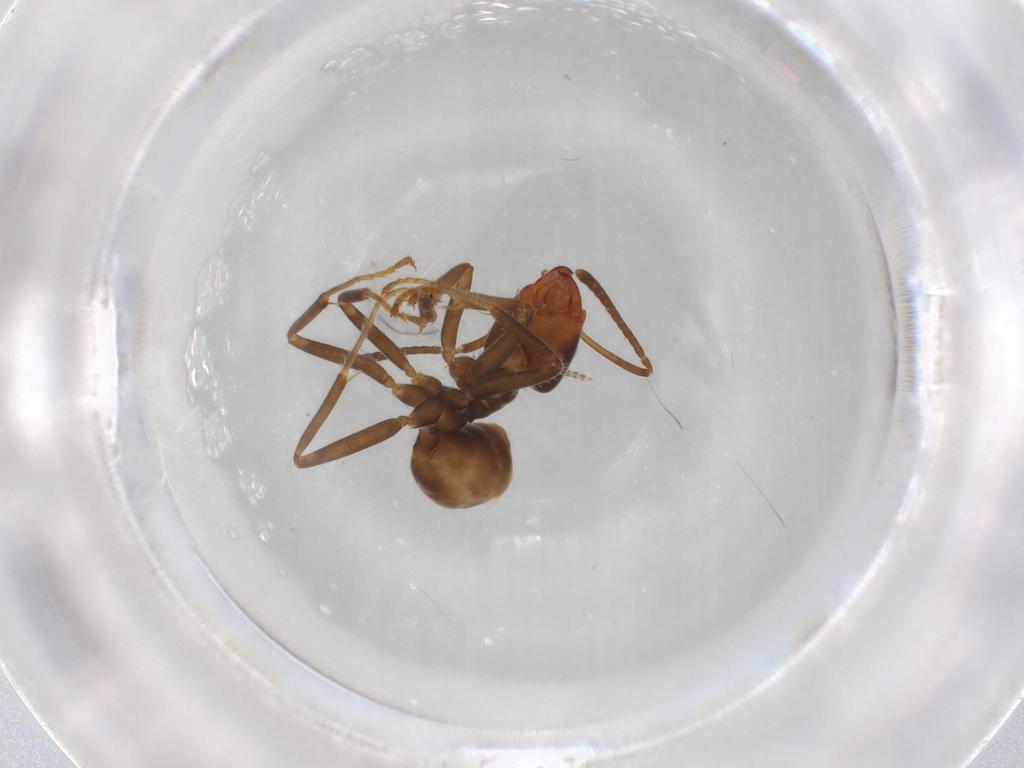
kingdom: Animalia
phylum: Arthropoda
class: Insecta
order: Hymenoptera
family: Formicidae
